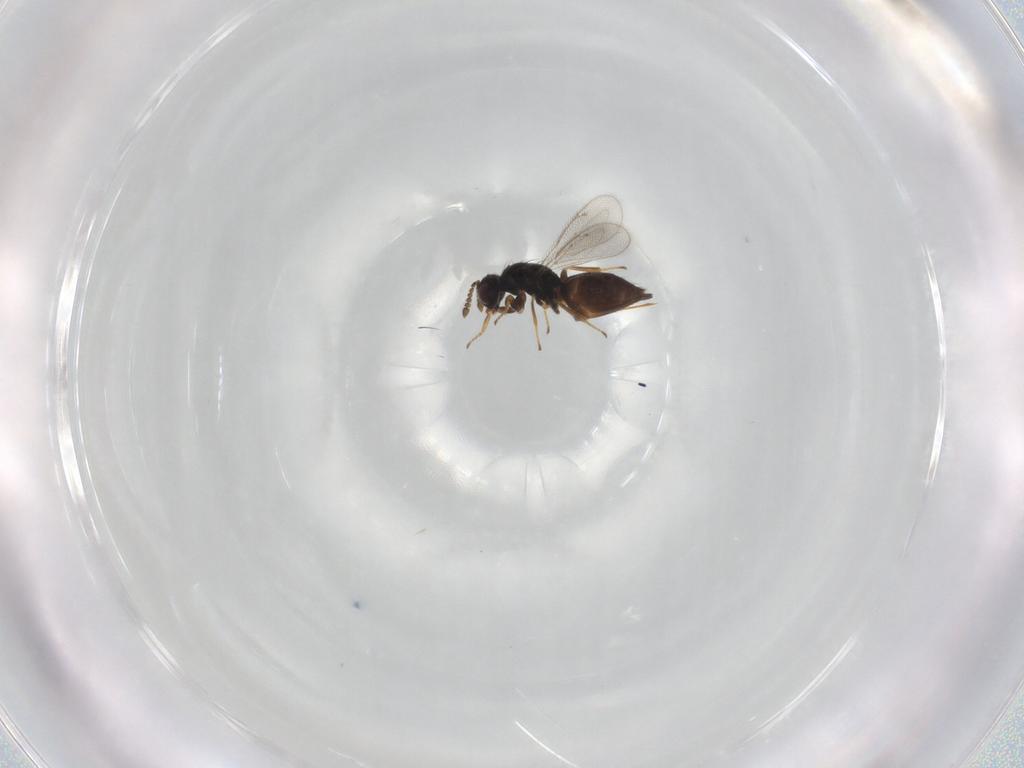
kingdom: Animalia
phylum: Arthropoda
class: Insecta
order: Hymenoptera
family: Eulophidae
